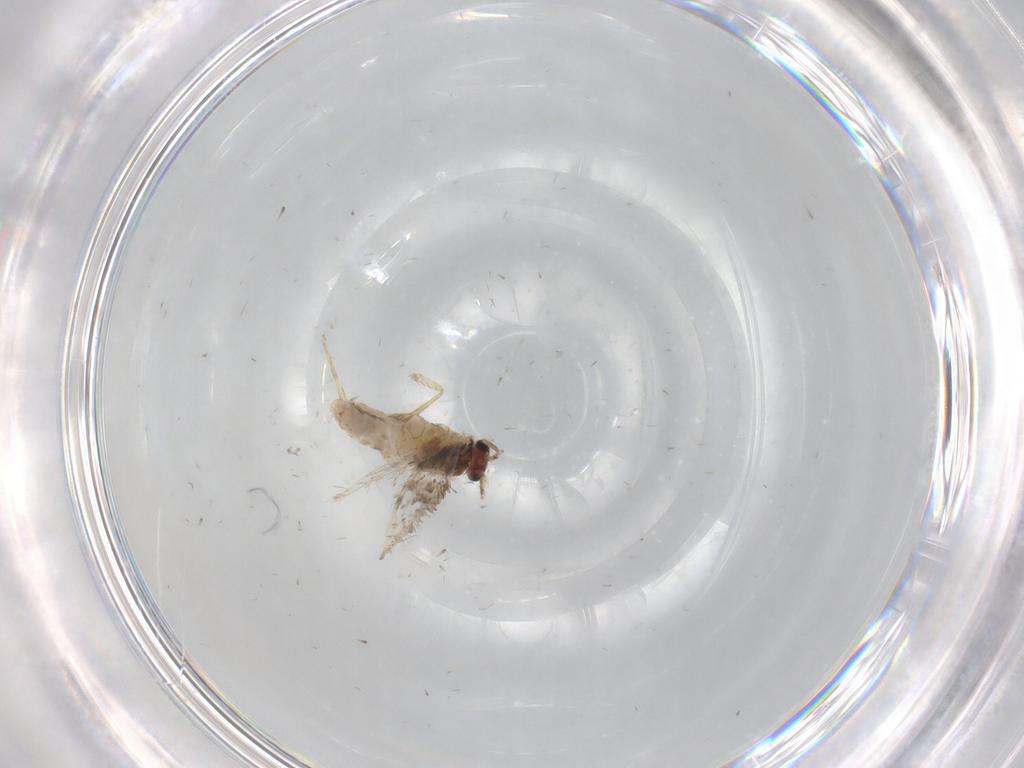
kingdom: Animalia
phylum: Arthropoda
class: Insecta
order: Lepidoptera
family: Nepticulidae
